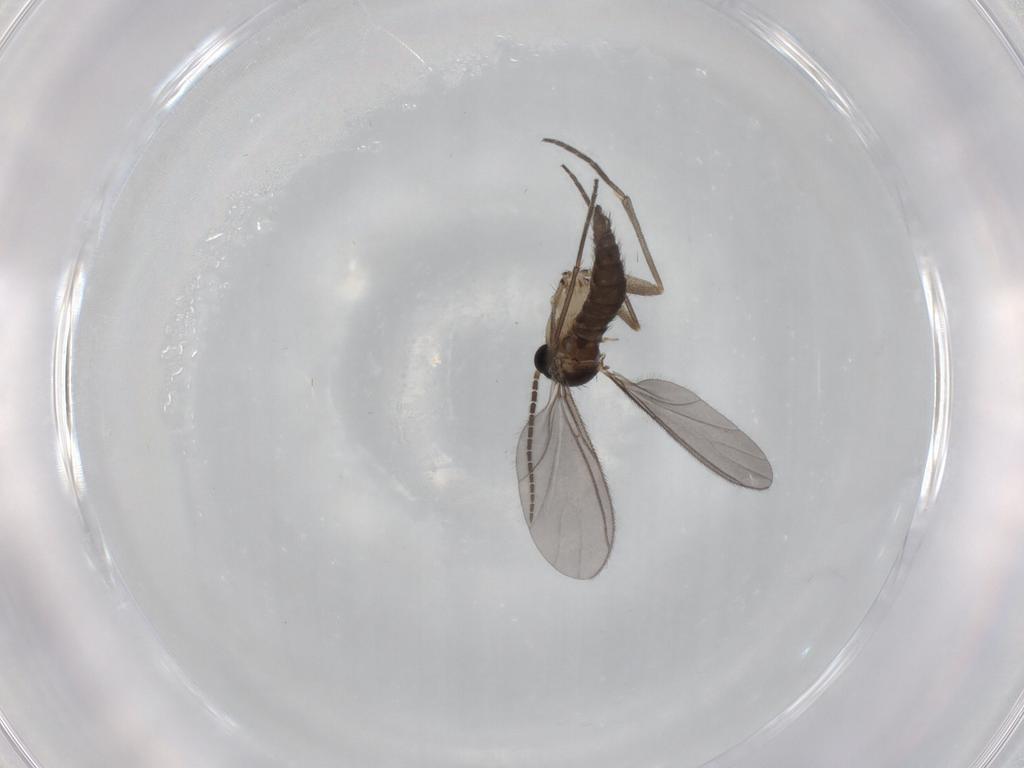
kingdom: Animalia
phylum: Arthropoda
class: Insecta
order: Diptera
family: Sciaridae
